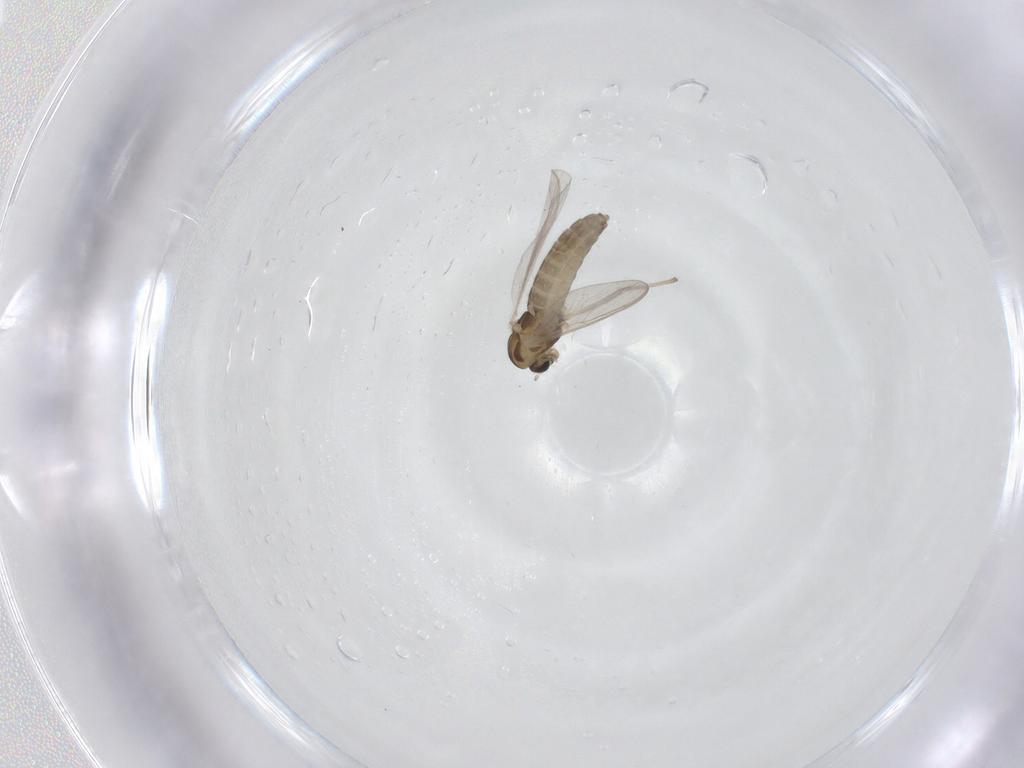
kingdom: Animalia
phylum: Arthropoda
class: Insecta
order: Diptera
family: Chironomidae
